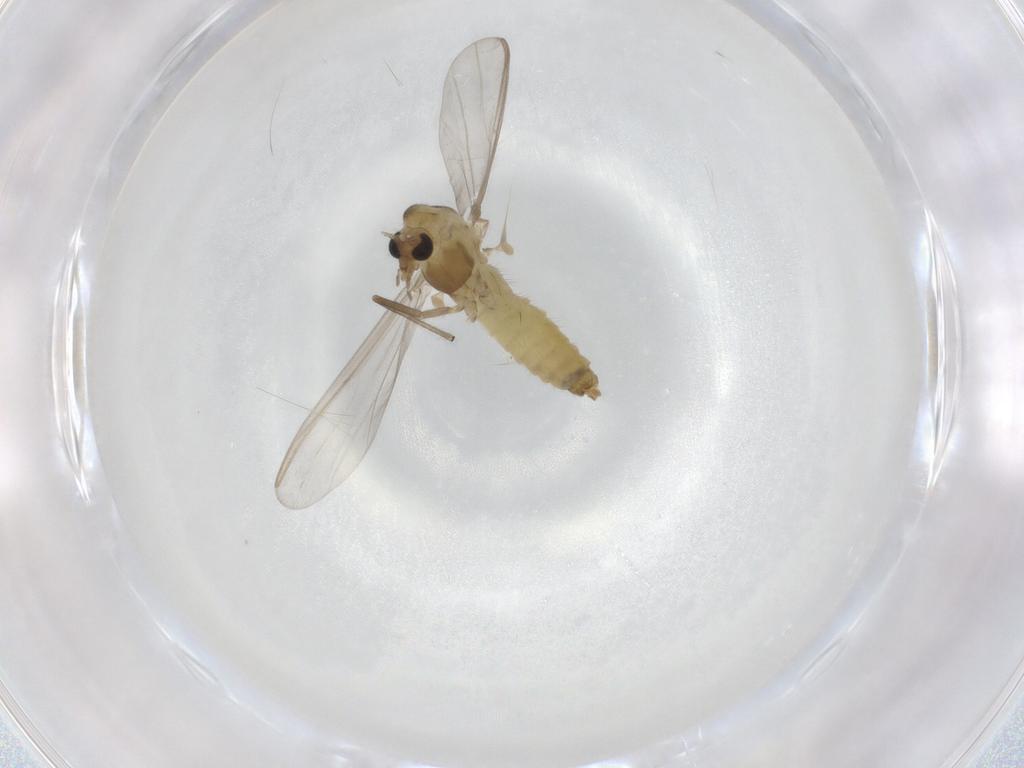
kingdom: Animalia
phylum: Arthropoda
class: Insecta
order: Diptera
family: Chironomidae
